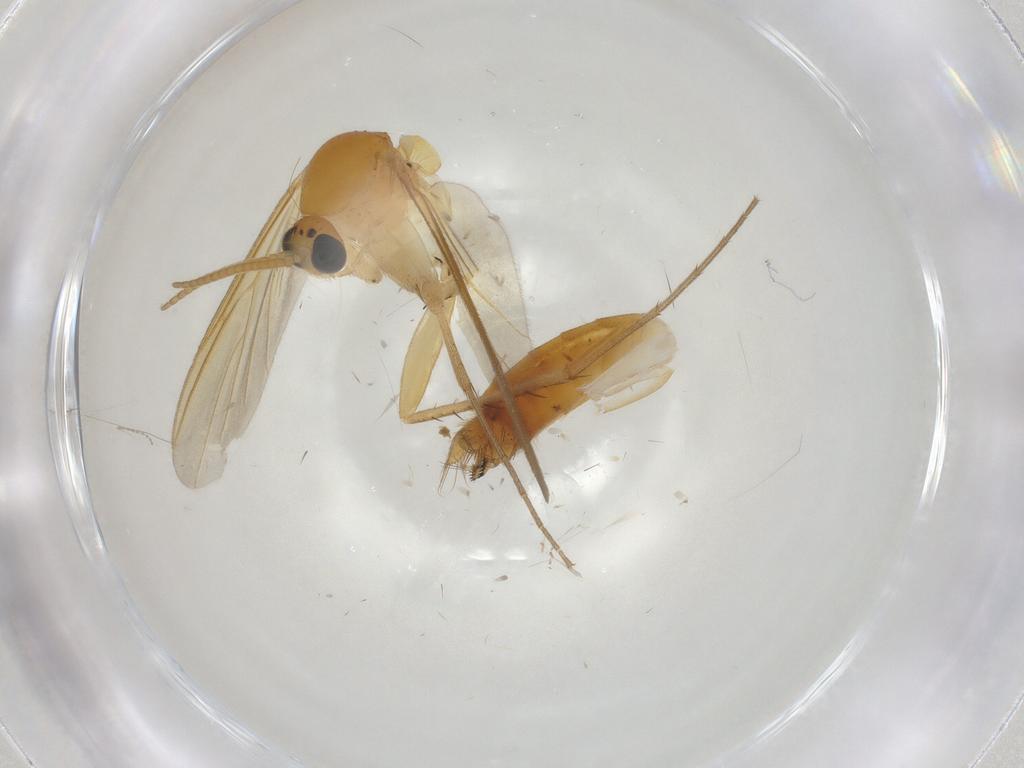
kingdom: Animalia
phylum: Arthropoda
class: Insecta
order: Diptera
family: Mycetophilidae
